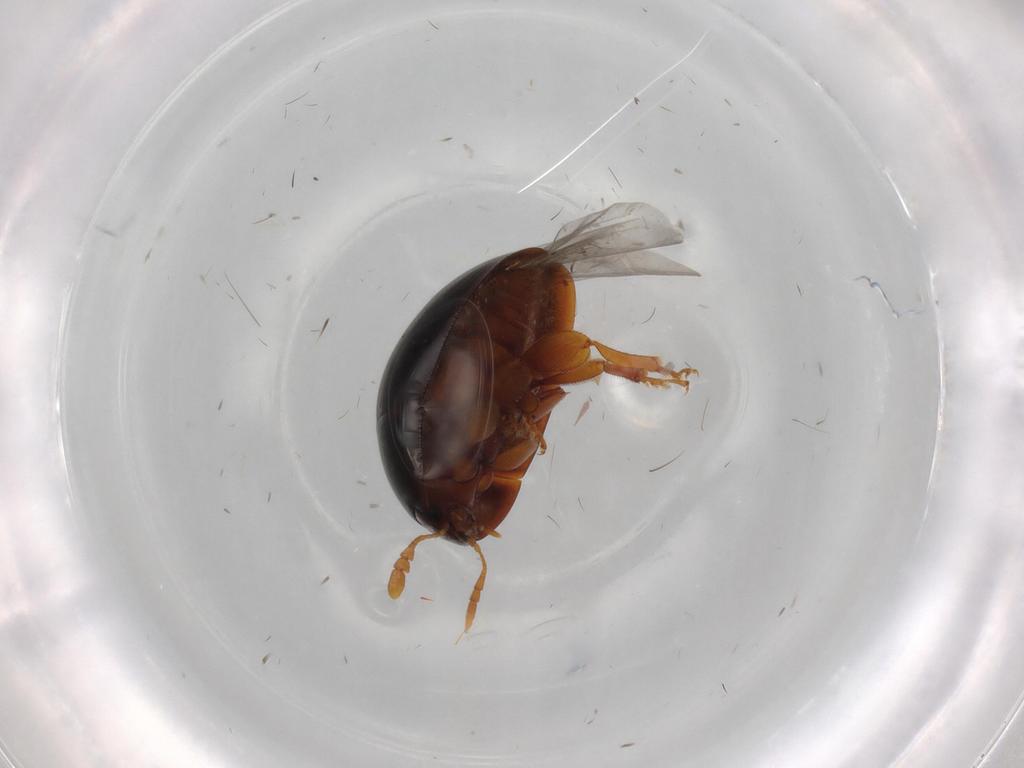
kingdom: Animalia
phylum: Arthropoda
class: Insecta
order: Coleoptera
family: Chrysomelidae
